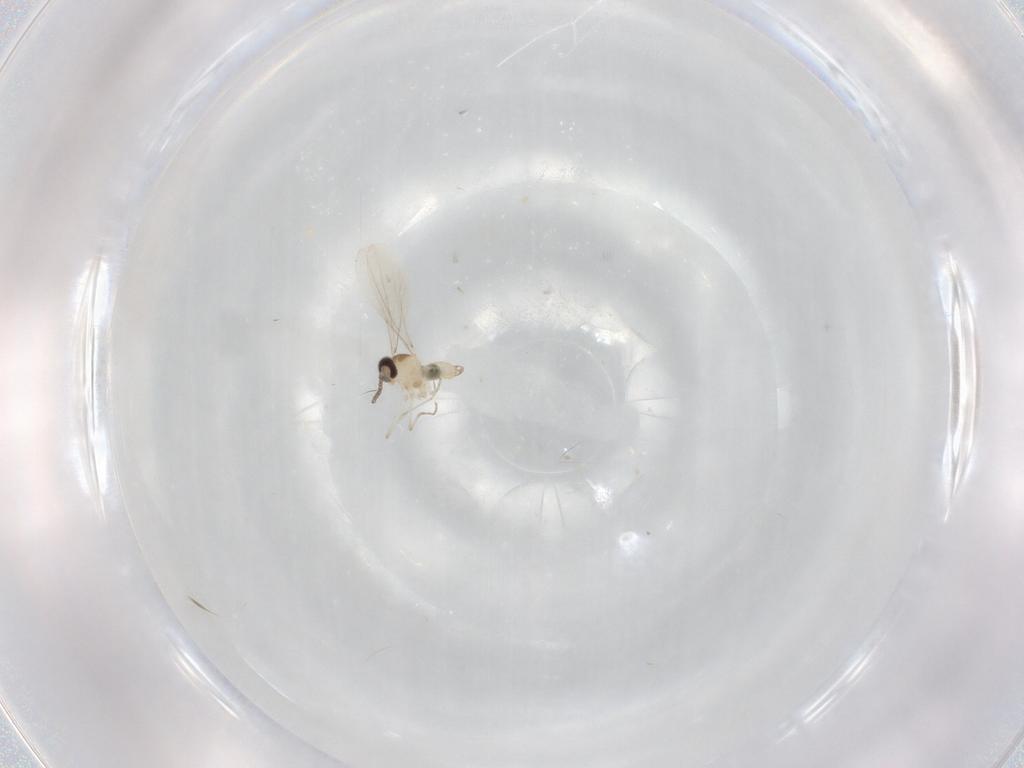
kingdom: Animalia
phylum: Arthropoda
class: Insecta
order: Diptera
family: Cecidomyiidae
